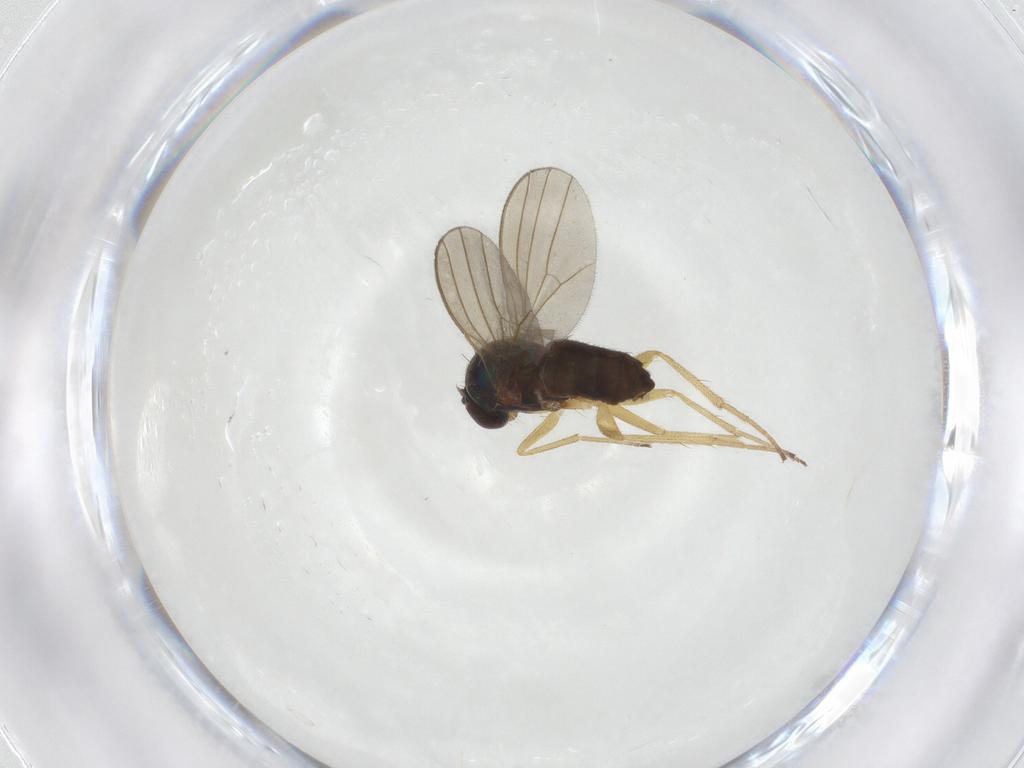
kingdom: Animalia
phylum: Arthropoda
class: Insecta
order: Diptera
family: Dolichopodidae
